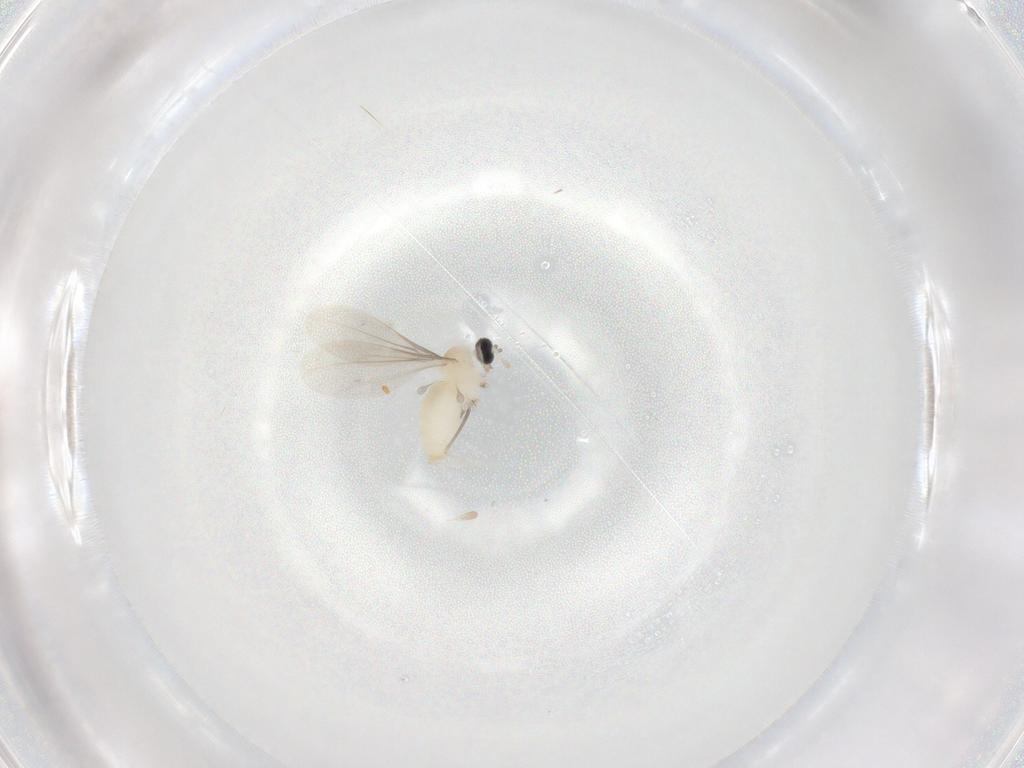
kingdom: Animalia
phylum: Arthropoda
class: Insecta
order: Diptera
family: Cecidomyiidae
